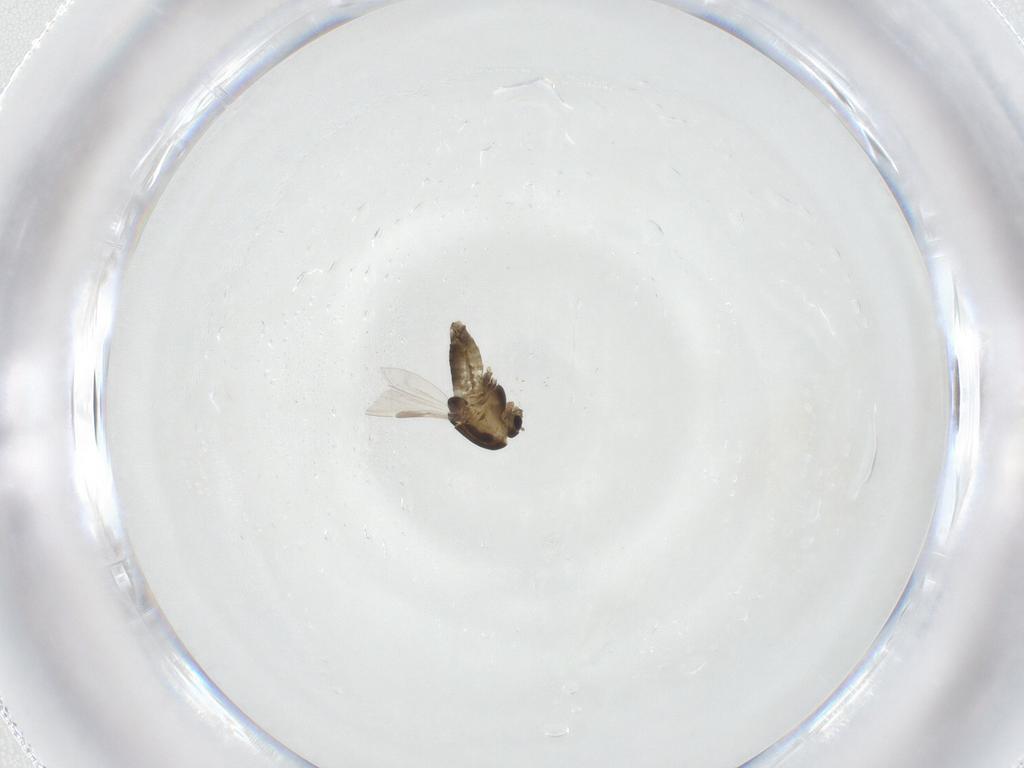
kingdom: Animalia
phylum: Arthropoda
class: Insecta
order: Diptera
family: Chironomidae
